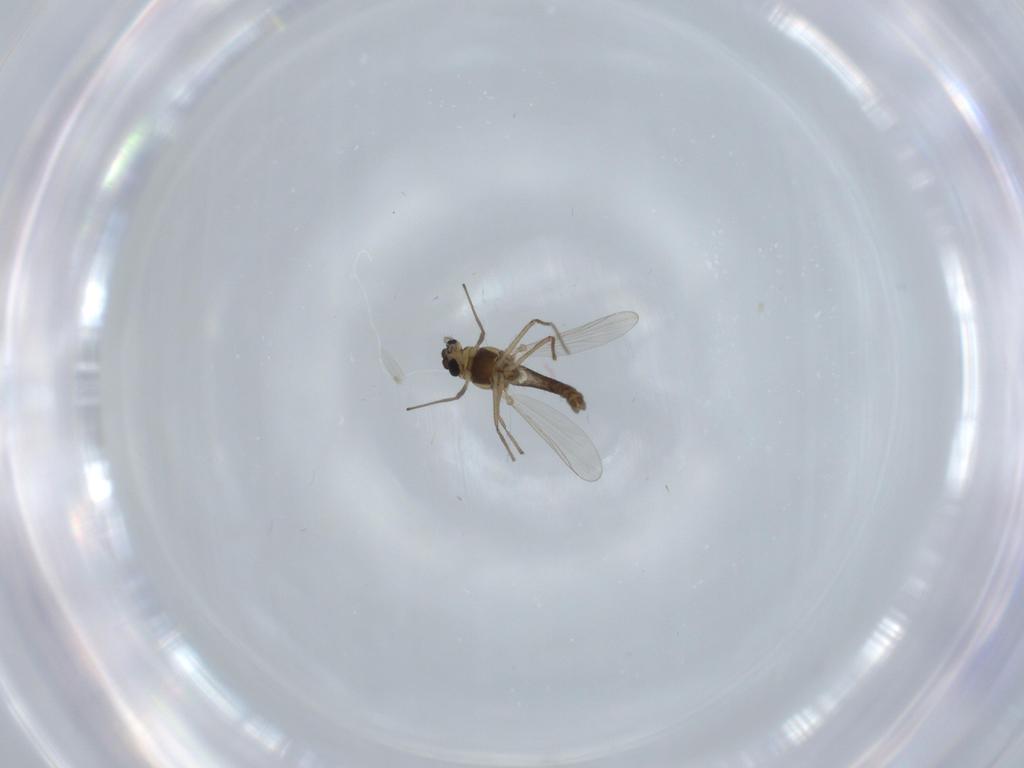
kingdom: Animalia
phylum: Arthropoda
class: Insecta
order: Diptera
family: Chironomidae
